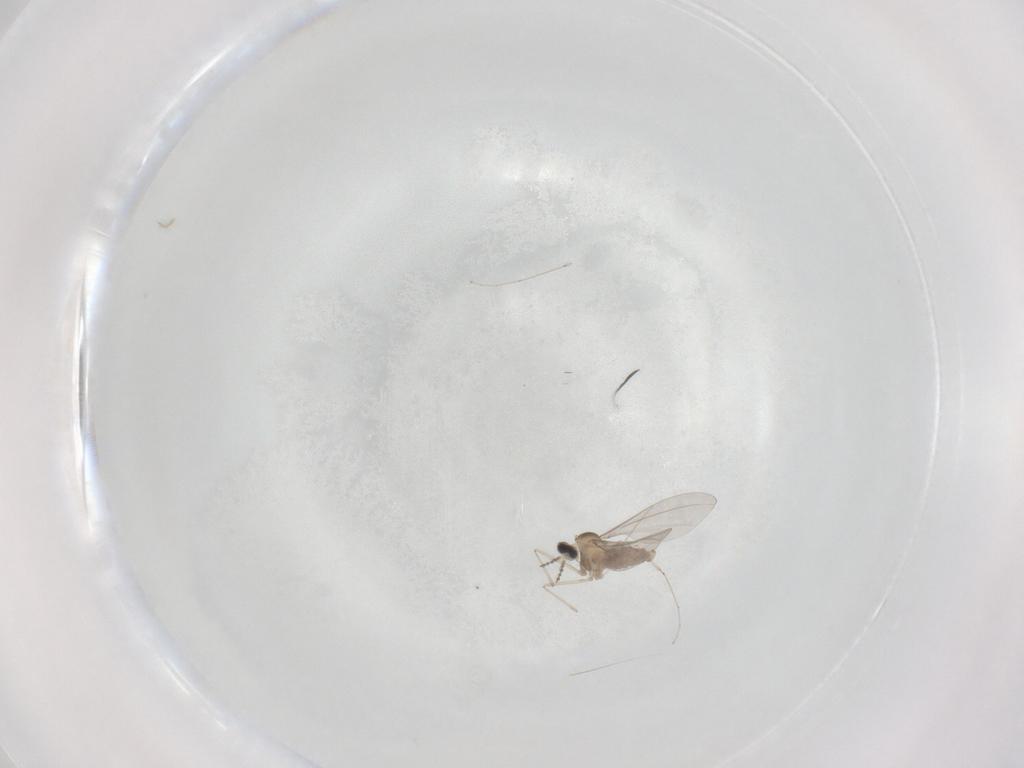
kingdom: Animalia
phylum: Arthropoda
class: Insecta
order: Diptera
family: Cecidomyiidae
